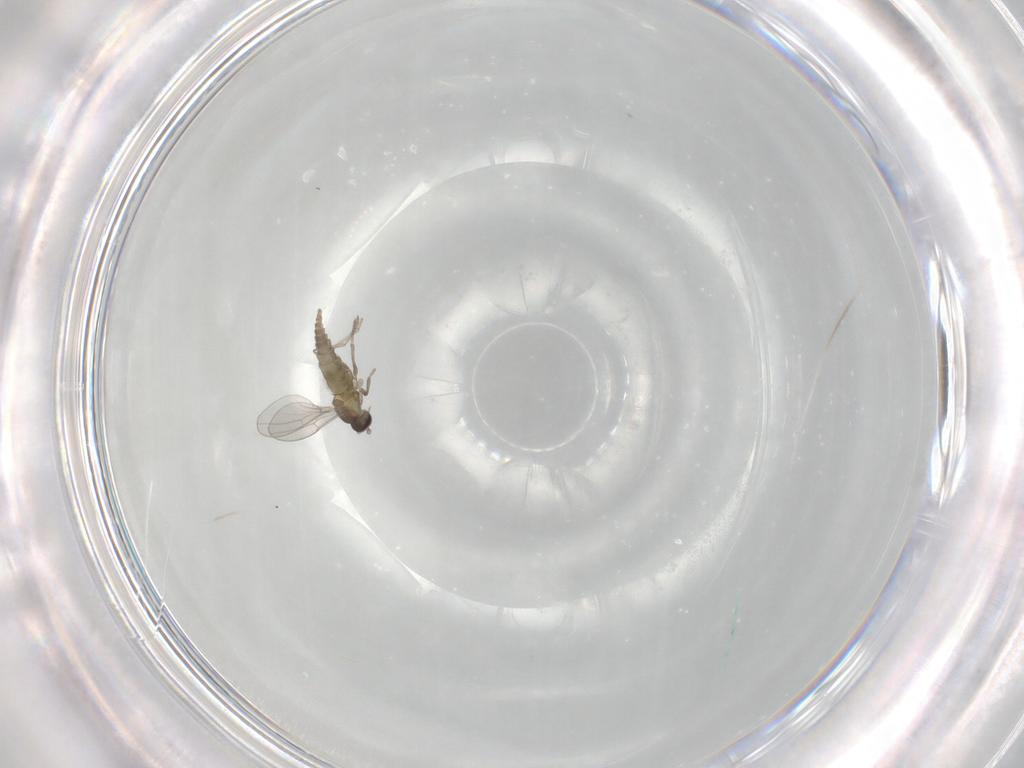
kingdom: Animalia
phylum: Arthropoda
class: Insecta
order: Diptera
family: Cecidomyiidae
